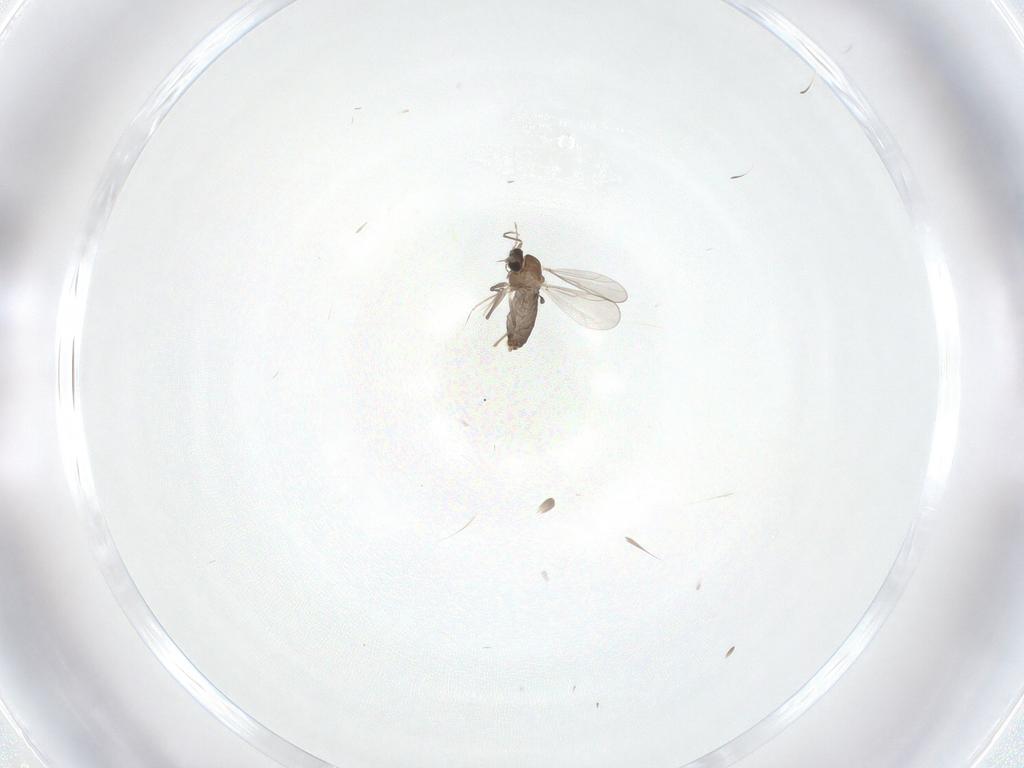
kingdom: Animalia
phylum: Arthropoda
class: Insecta
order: Diptera
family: Chironomidae
